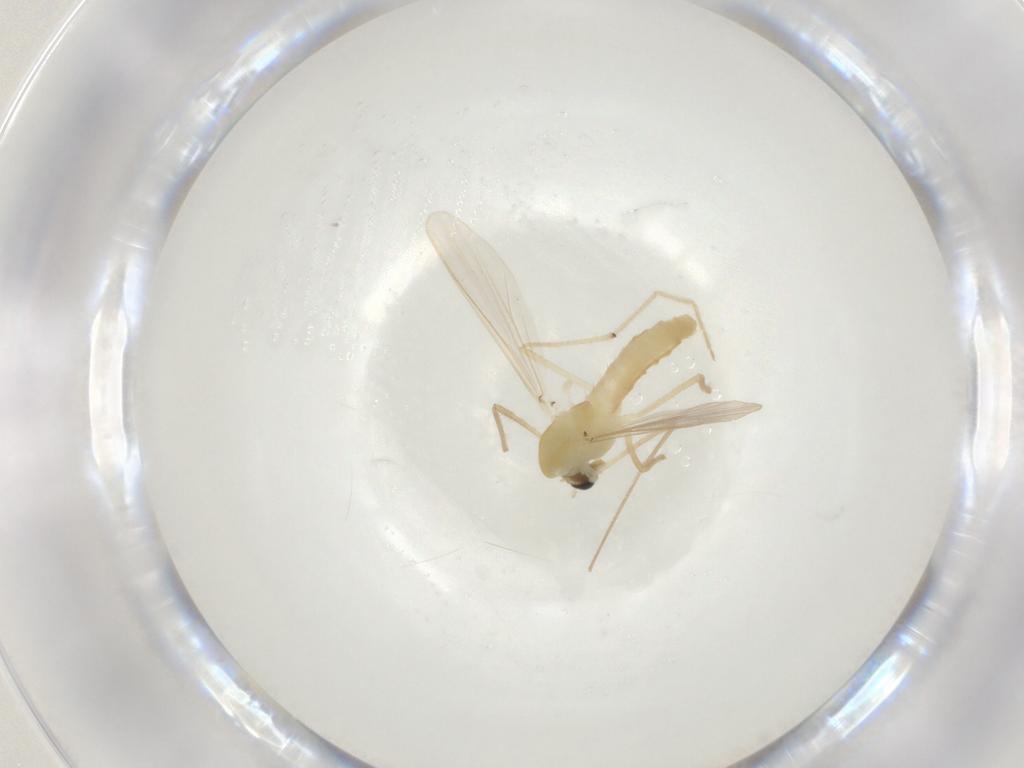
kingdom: Animalia
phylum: Arthropoda
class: Insecta
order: Diptera
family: Chironomidae
